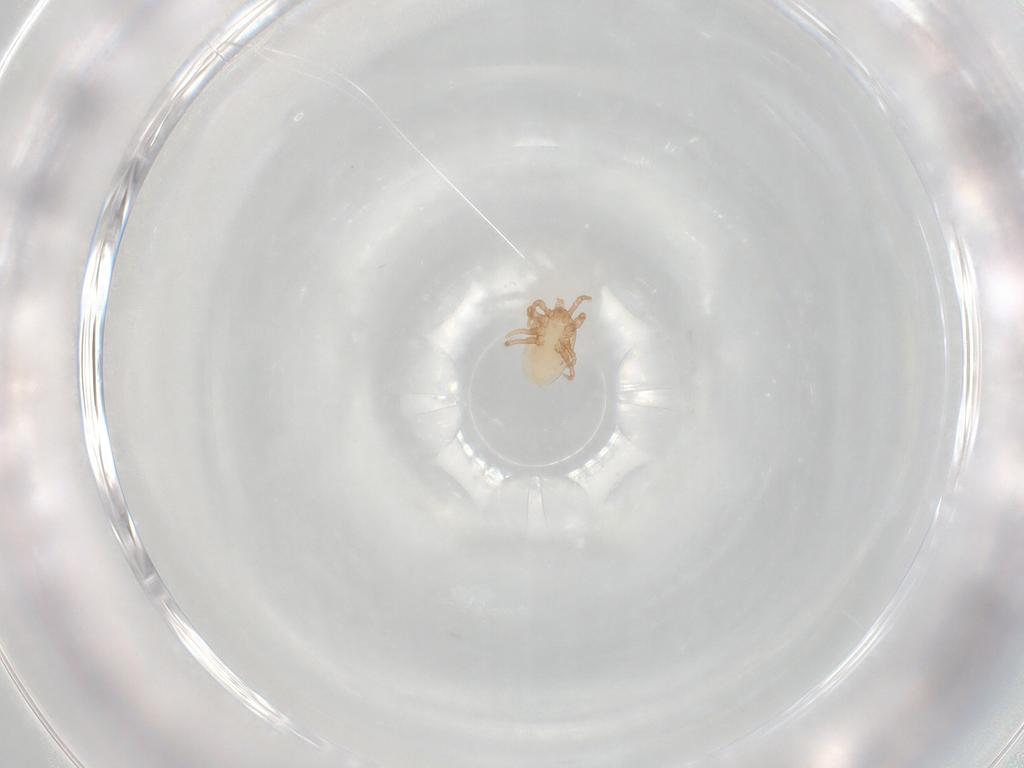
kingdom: Animalia
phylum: Arthropoda
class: Arachnida
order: Mesostigmata
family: Laelapidae
